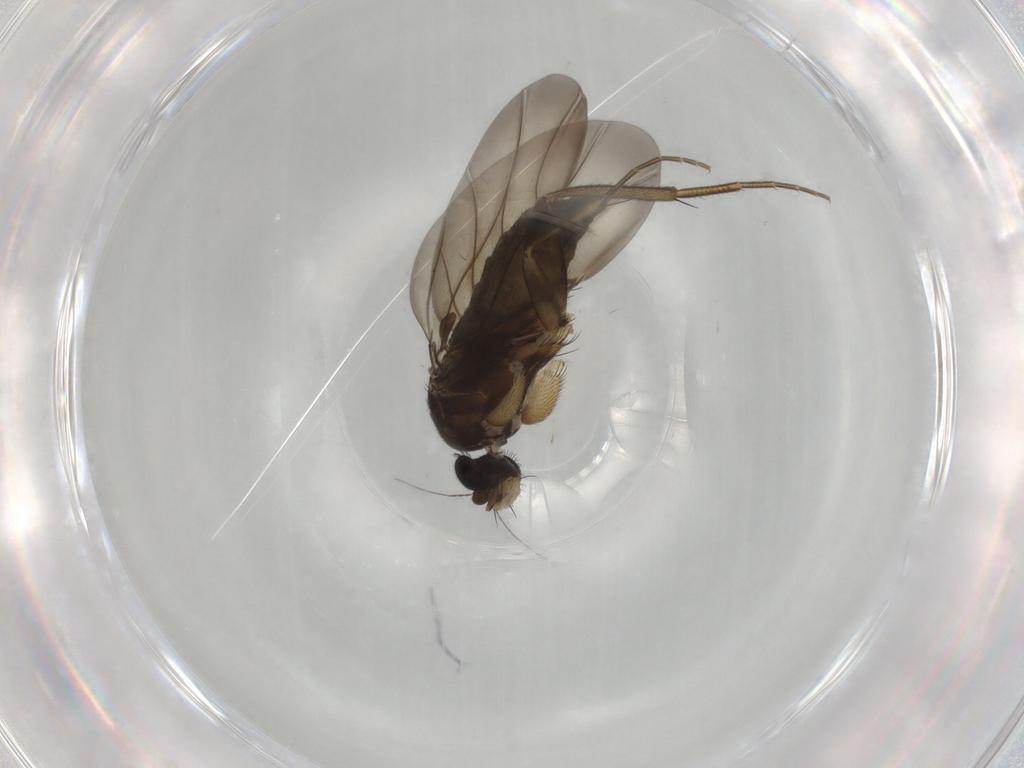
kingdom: Animalia
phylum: Arthropoda
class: Insecta
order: Diptera
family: Phoridae
